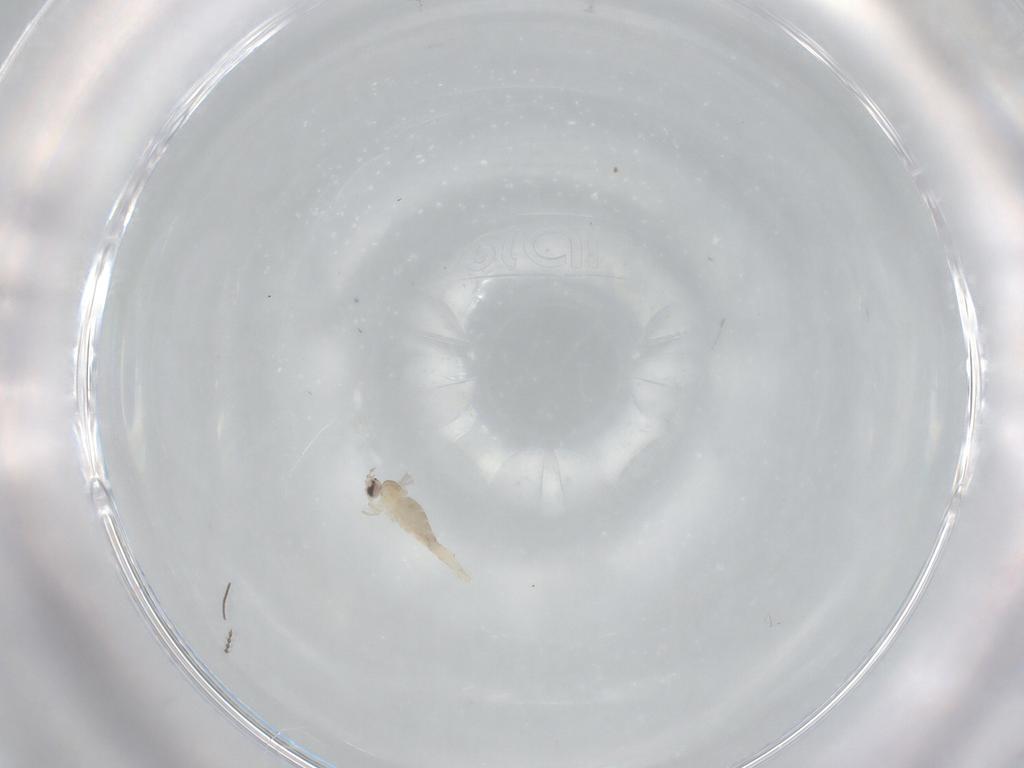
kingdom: Animalia
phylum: Arthropoda
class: Insecta
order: Diptera
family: Cecidomyiidae
